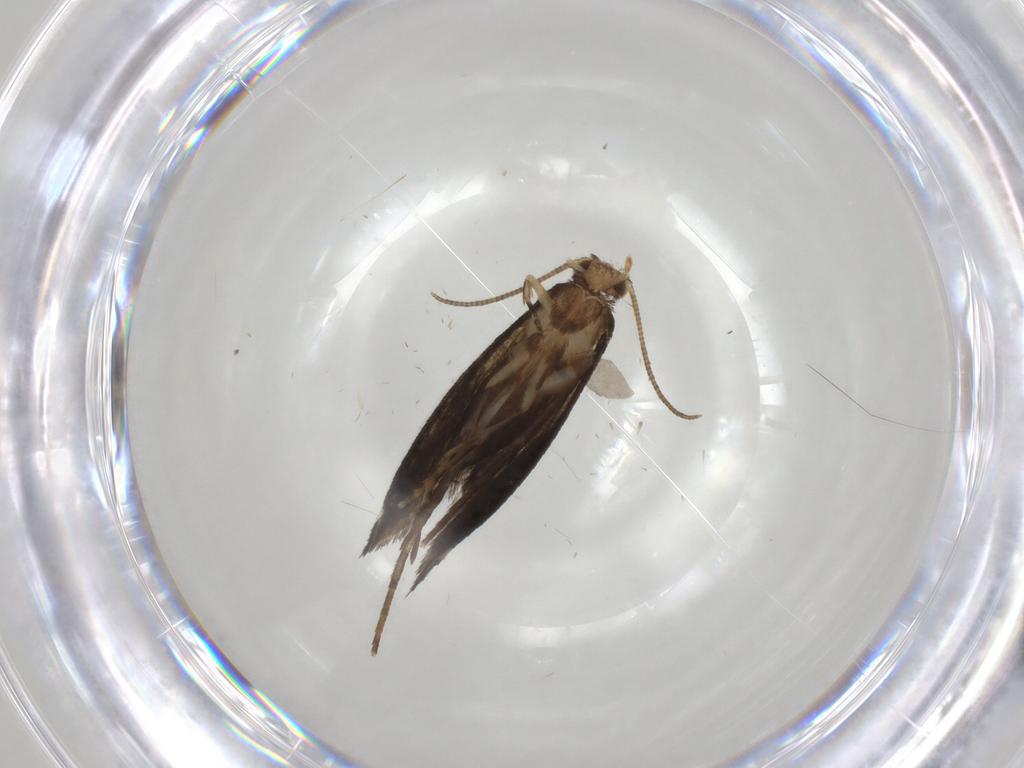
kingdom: Animalia
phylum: Arthropoda
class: Insecta
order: Lepidoptera
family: Tineidae
